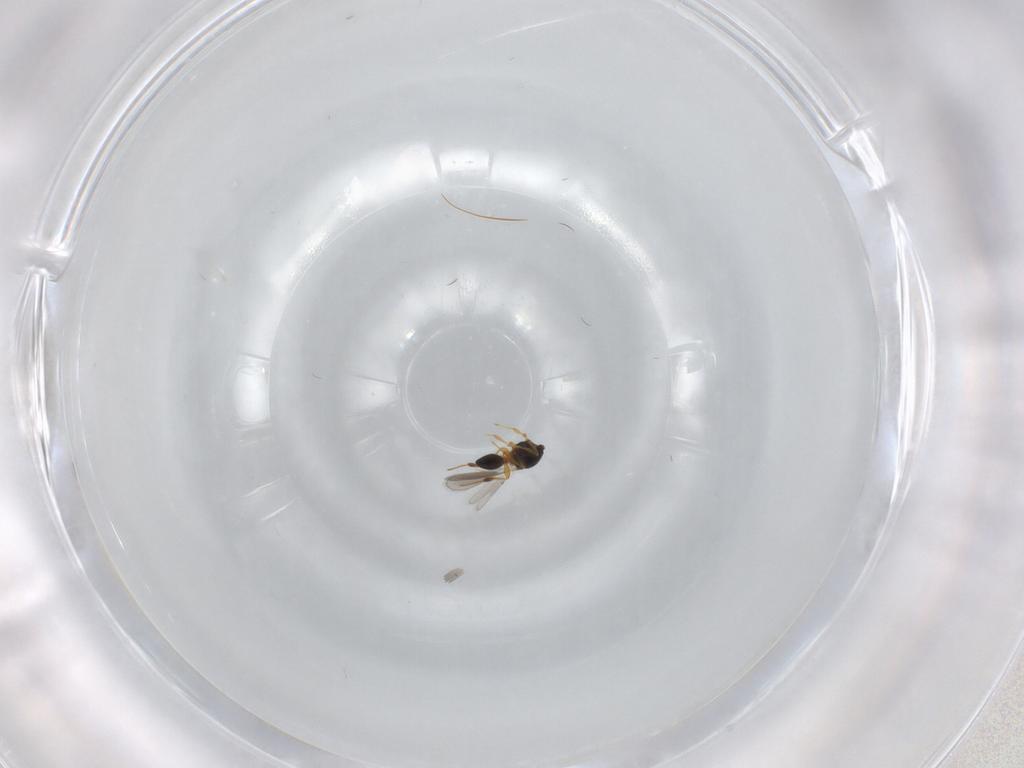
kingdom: Animalia
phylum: Arthropoda
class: Insecta
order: Hymenoptera
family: Platygastridae
